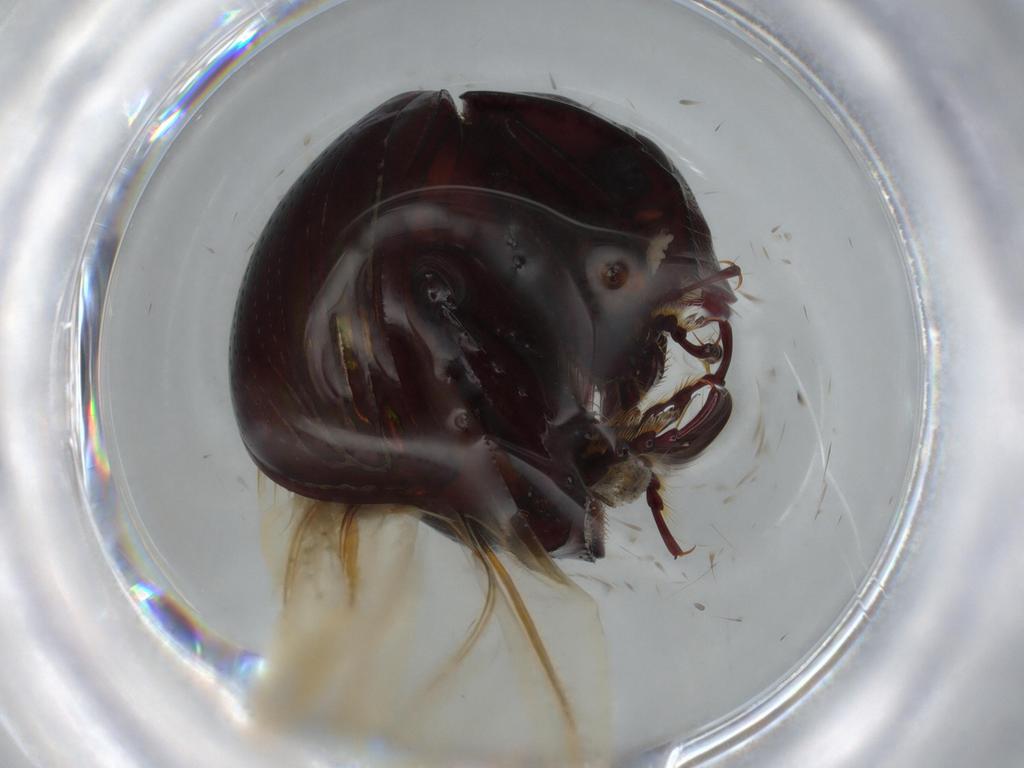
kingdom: Animalia
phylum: Arthropoda
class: Insecta
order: Coleoptera
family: Hybosoridae
